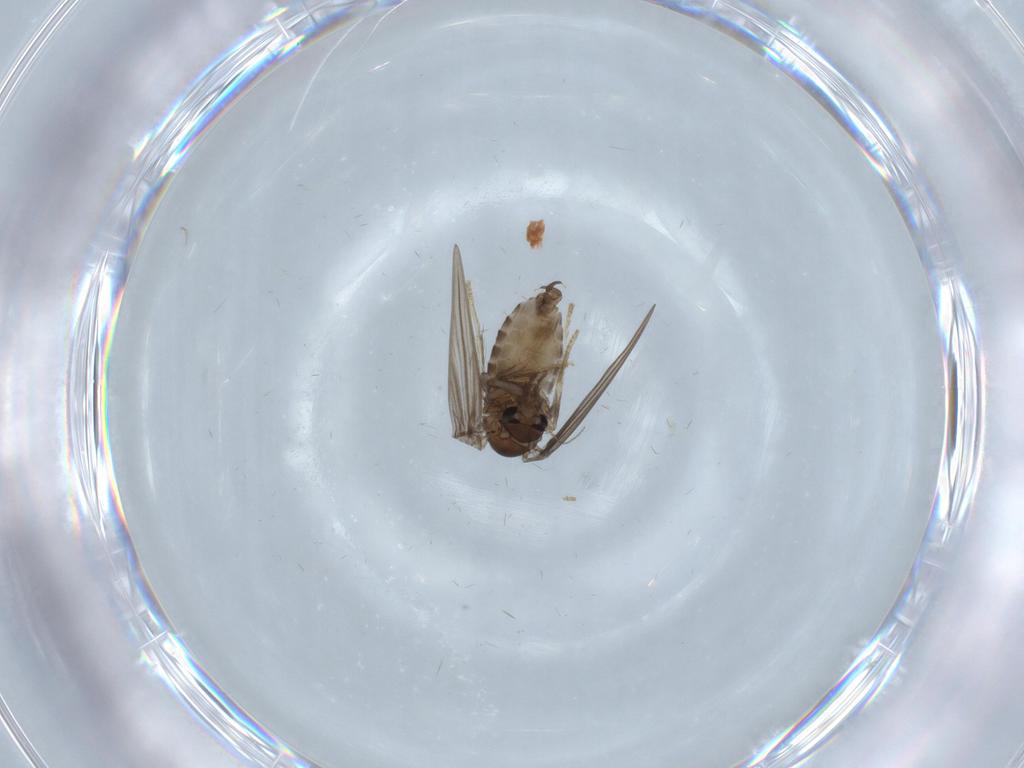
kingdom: Animalia
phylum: Arthropoda
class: Insecta
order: Diptera
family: Psychodidae
